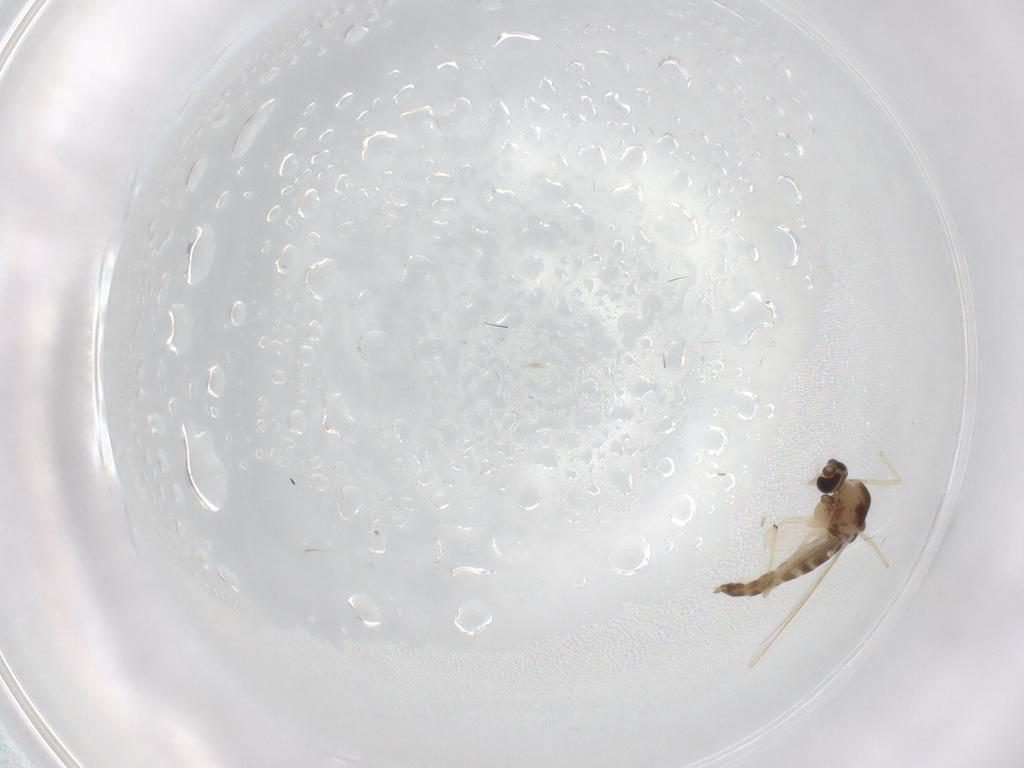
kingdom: Animalia
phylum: Arthropoda
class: Insecta
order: Diptera
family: Chironomidae
